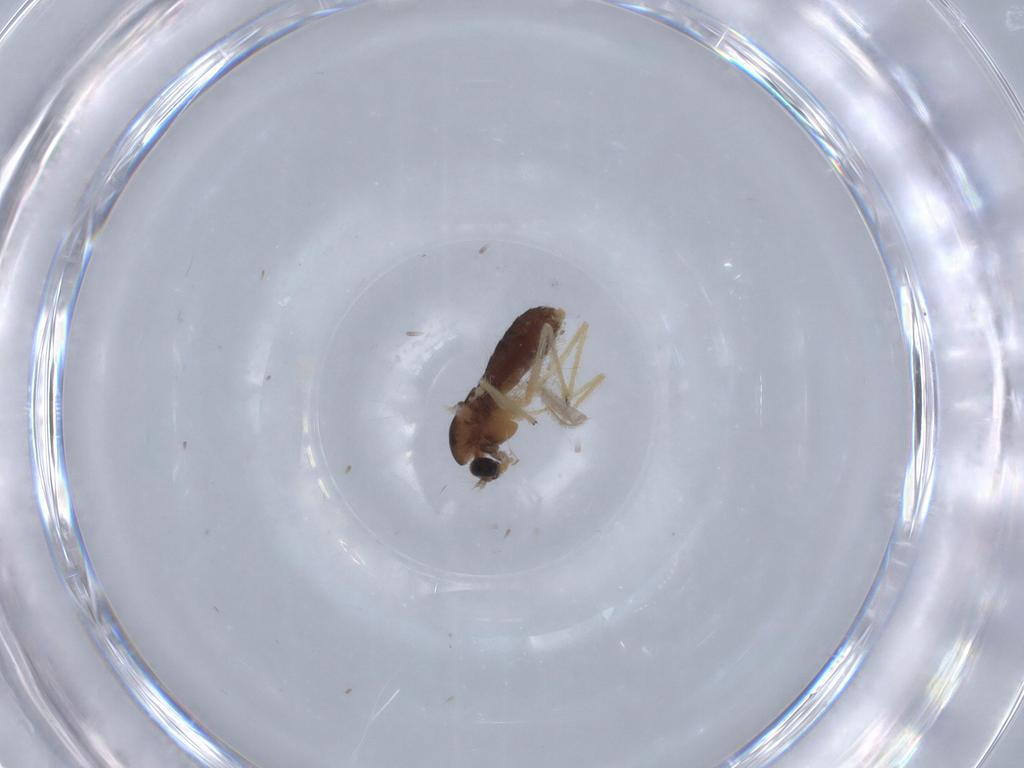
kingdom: Animalia
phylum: Arthropoda
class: Insecta
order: Diptera
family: Chironomidae
